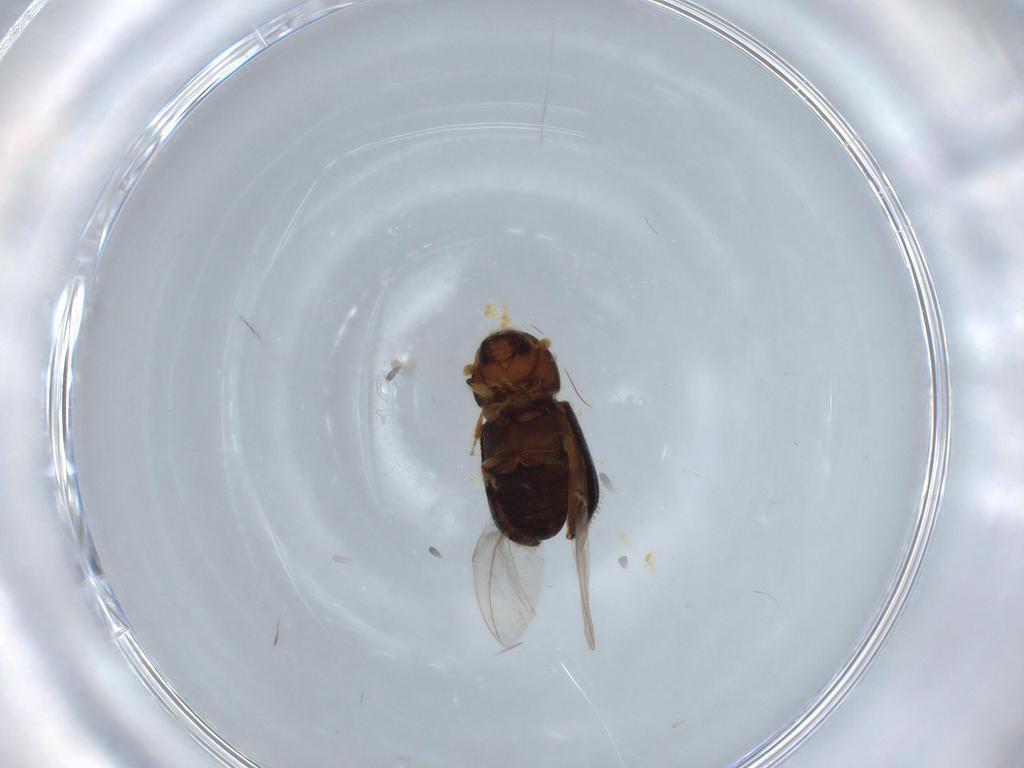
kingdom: Animalia
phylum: Arthropoda
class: Insecta
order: Coleoptera
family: Curculionidae
